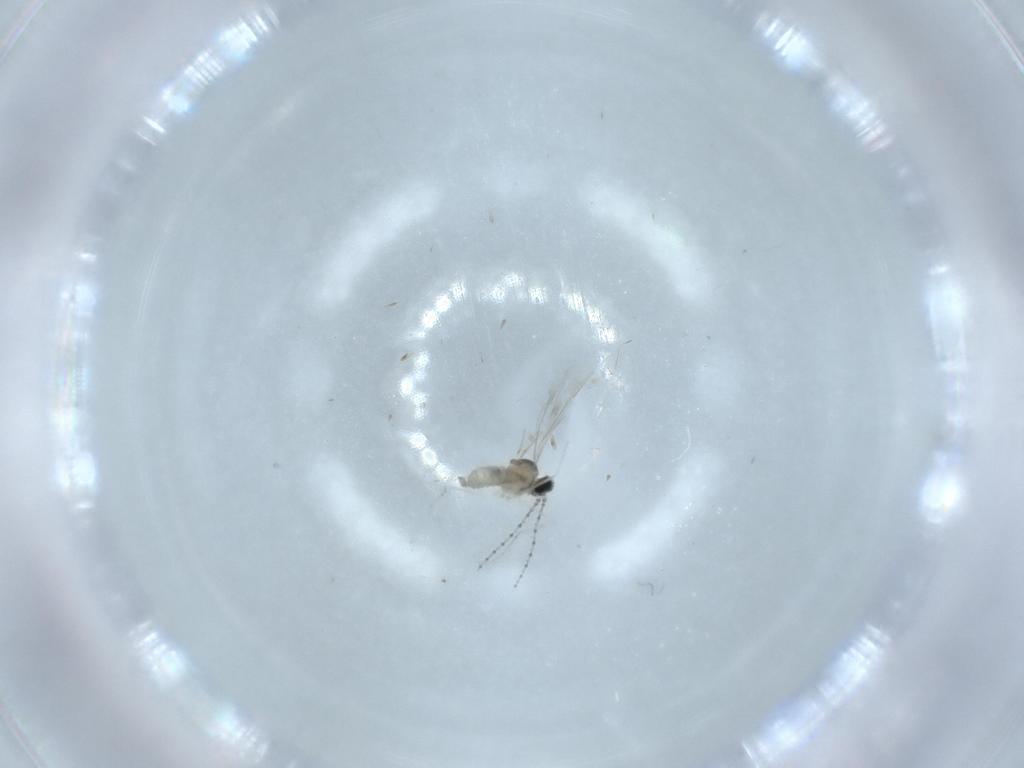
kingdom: Animalia
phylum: Arthropoda
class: Insecta
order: Diptera
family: Cecidomyiidae
